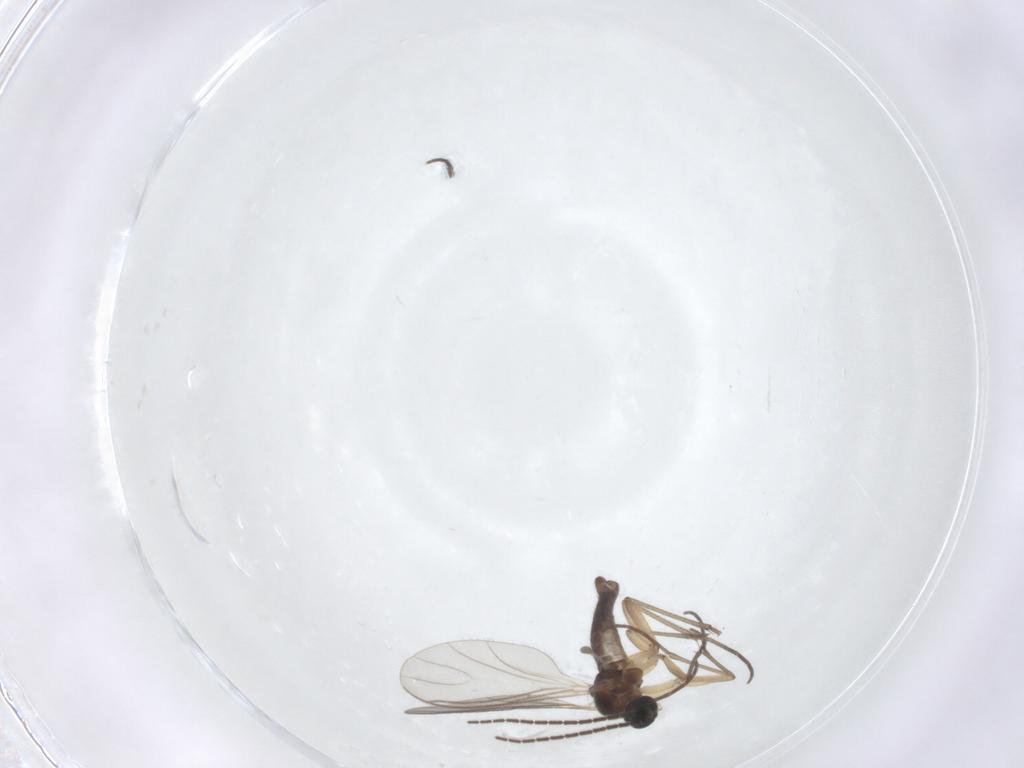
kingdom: Animalia
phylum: Arthropoda
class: Insecta
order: Diptera
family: Sciaridae
